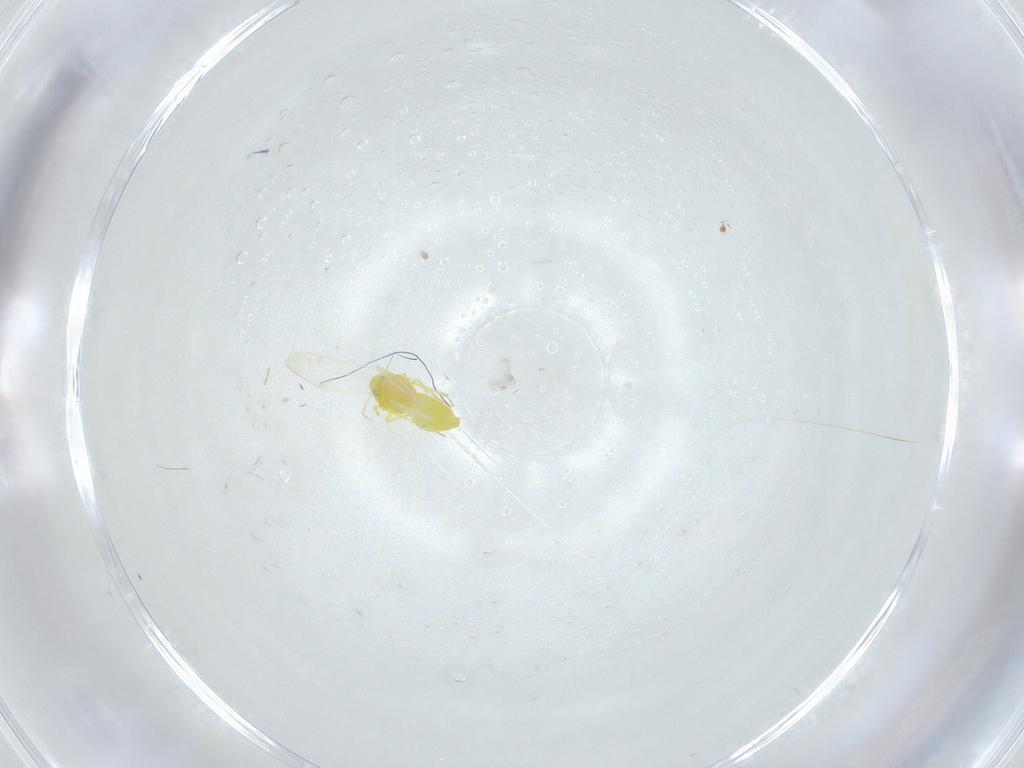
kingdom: Animalia
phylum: Arthropoda
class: Insecta
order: Hemiptera
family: Aleyrodidae
